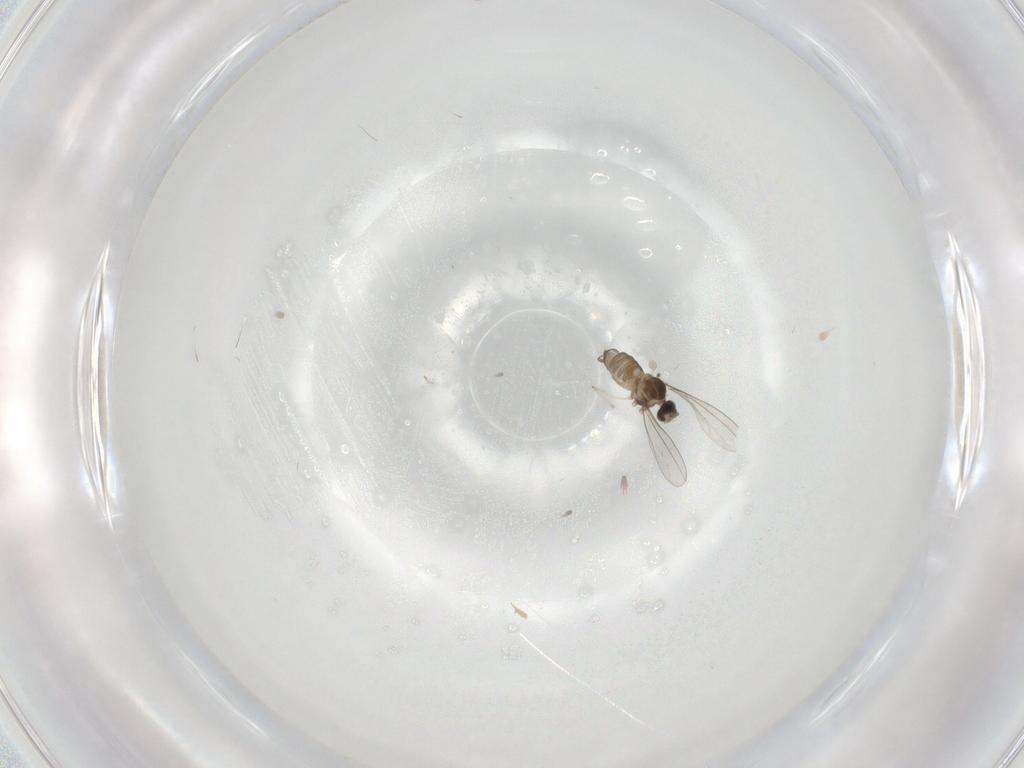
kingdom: Animalia
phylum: Arthropoda
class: Insecta
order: Diptera
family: Cecidomyiidae
